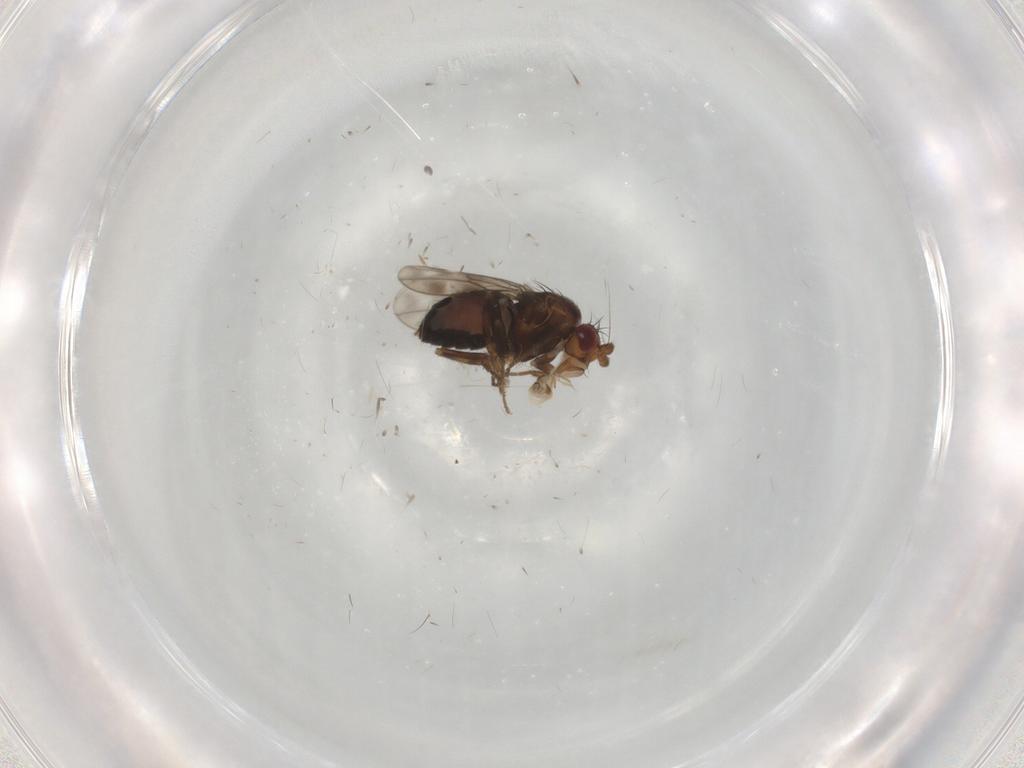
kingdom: Animalia
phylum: Arthropoda
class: Insecta
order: Diptera
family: Sphaeroceridae
